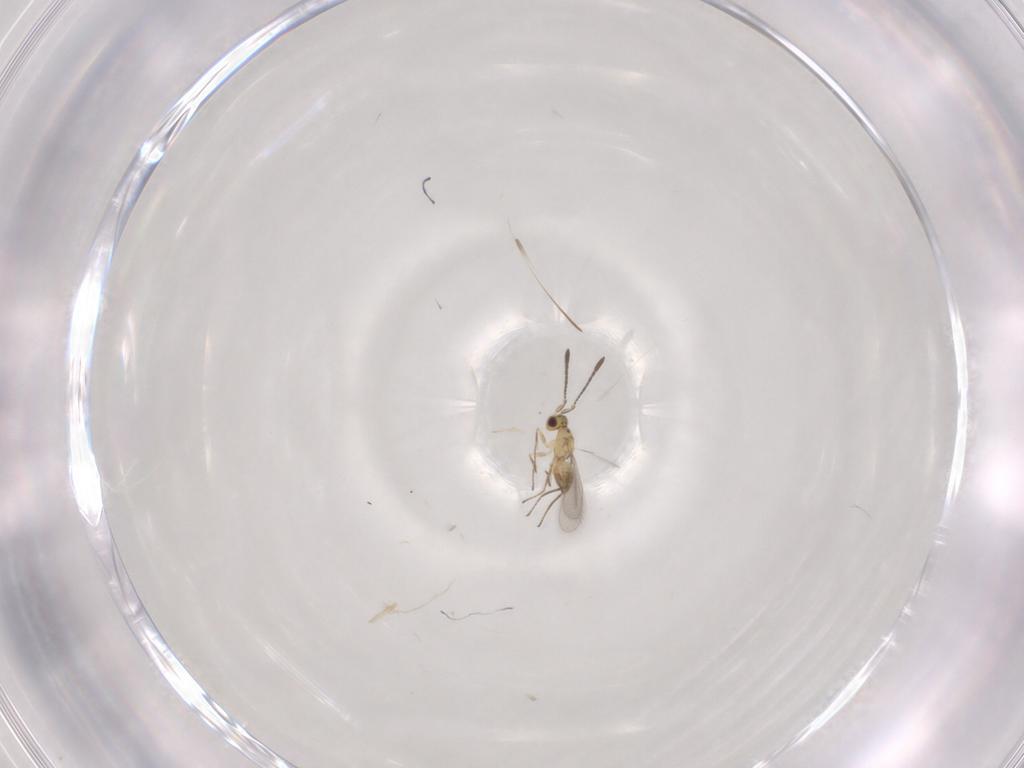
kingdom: Animalia
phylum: Arthropoda
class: Insecta
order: Hymenoptera
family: Mymaridae
